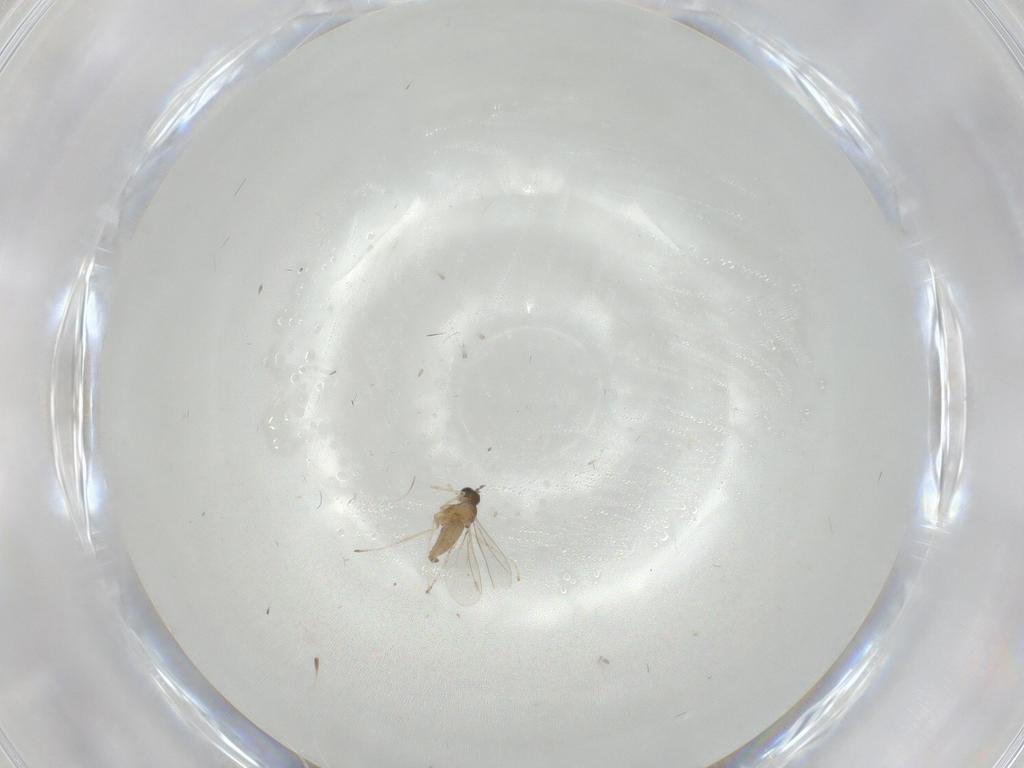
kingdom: Animalia
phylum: Arthropoda
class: Insecta
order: Diptera
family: Cecidomyiidae
